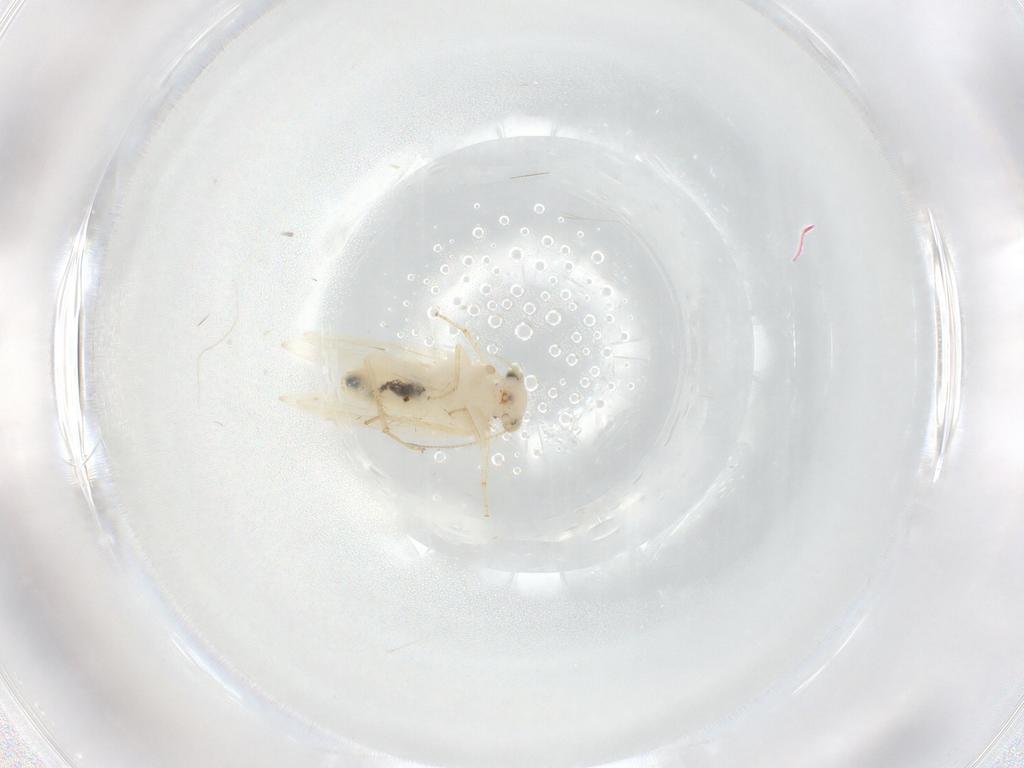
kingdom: Animalia
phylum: Arthropoda
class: Insecta
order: Psocodea
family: Lepidopsocidae
